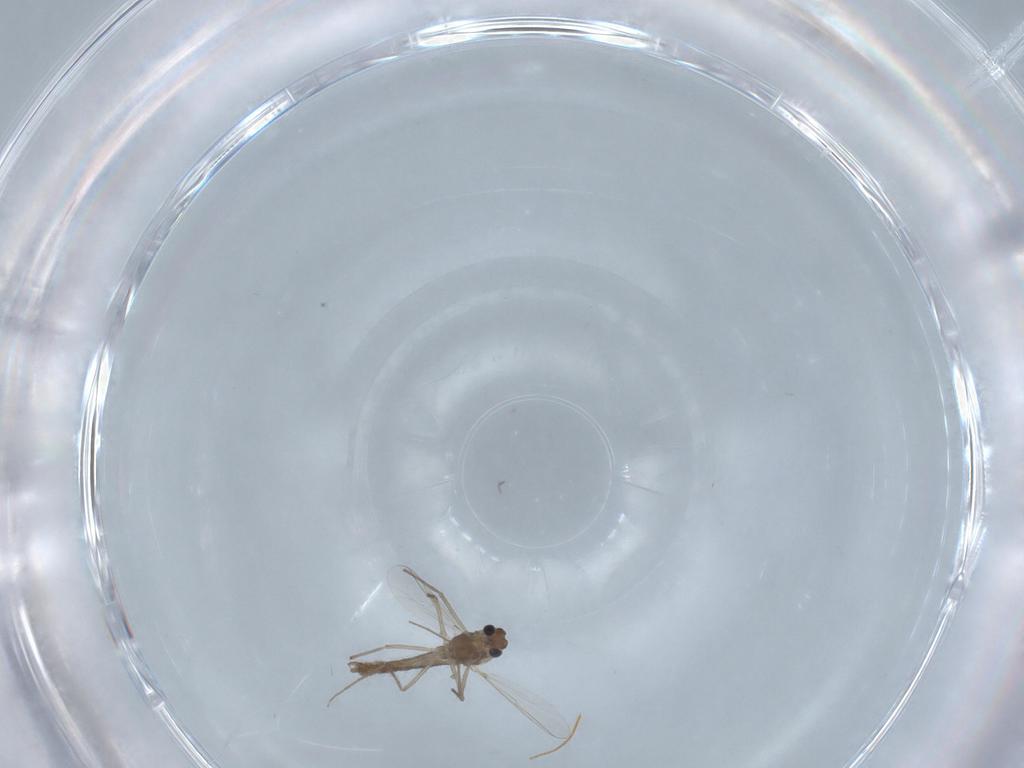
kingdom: Animalia
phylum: Arthropoda
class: Insecta
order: Diptera
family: Chironomidae
